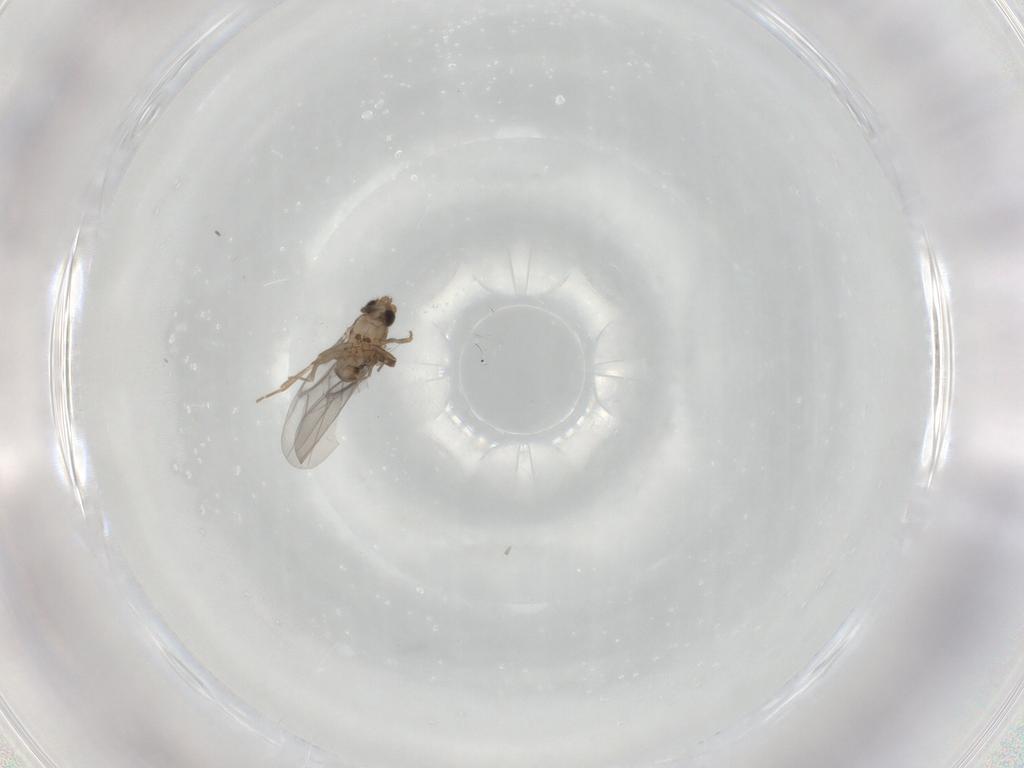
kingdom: Animalia
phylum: Arthropoda
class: Insecta
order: Diptera
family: Psychodidae
